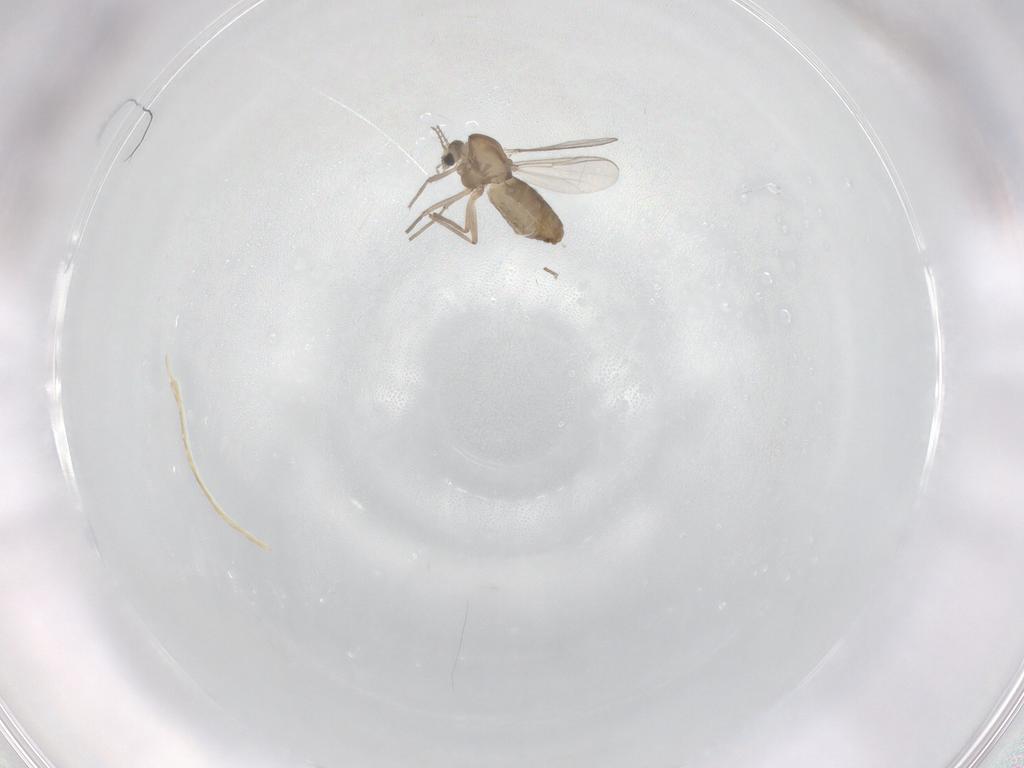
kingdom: Animalia
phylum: Arthropoda
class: Insecta
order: Diptera
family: Chironomidae
